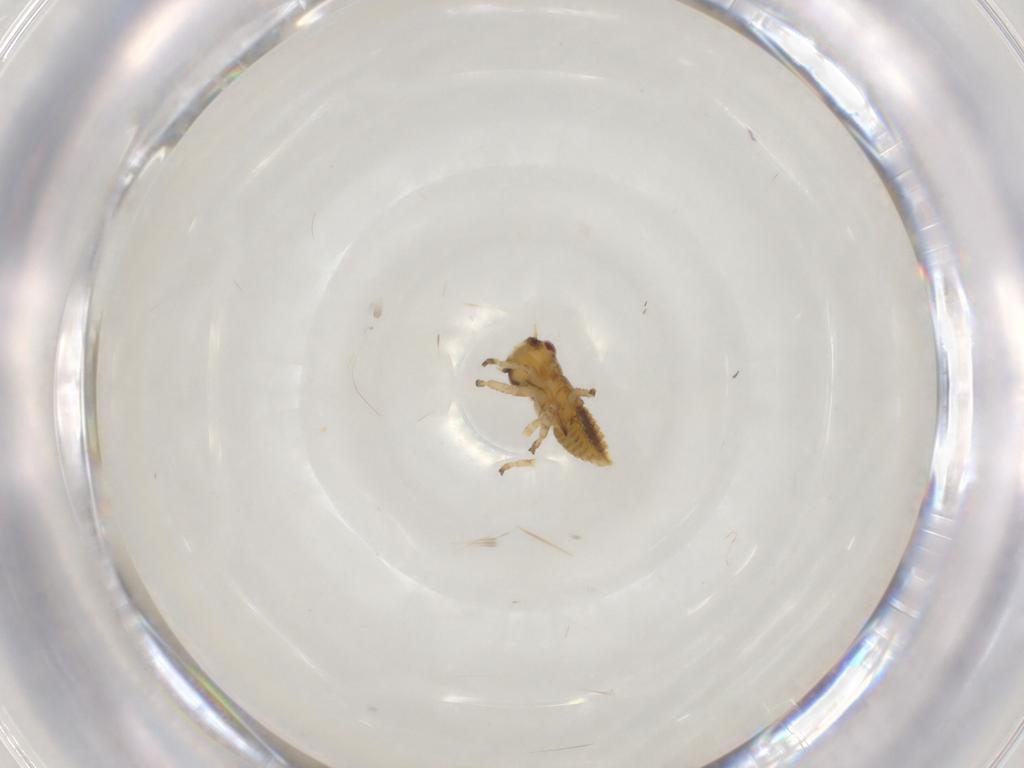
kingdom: Animalia
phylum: Arthropoda
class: Insecta
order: Hemiptera
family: Cicadellidae
